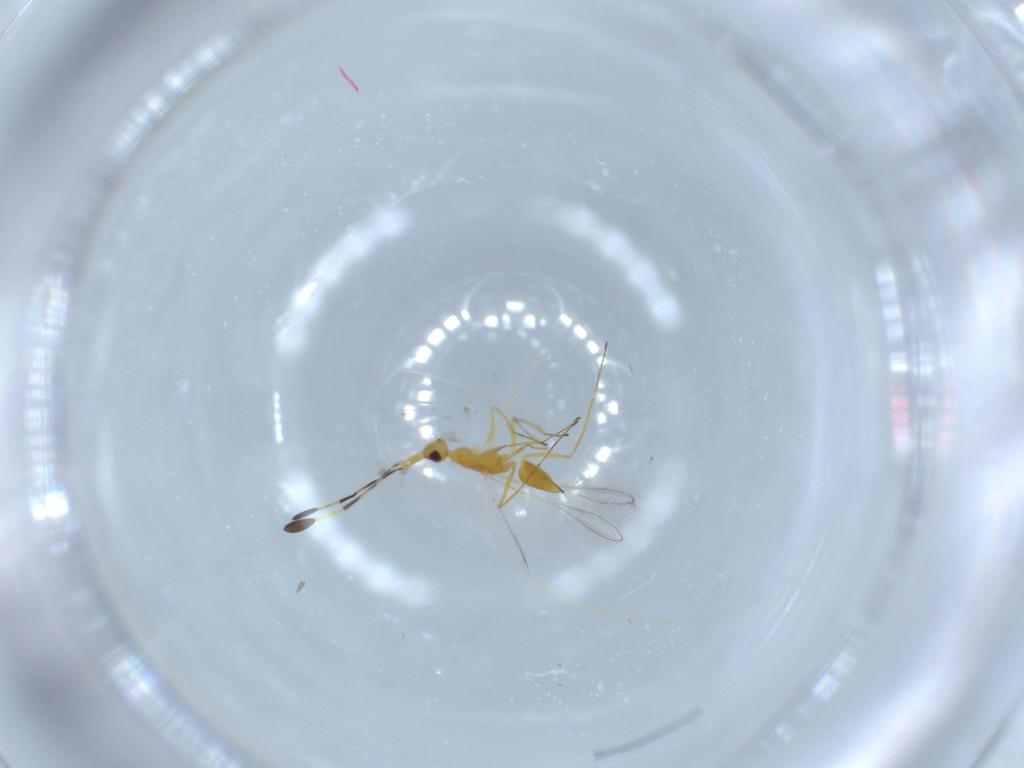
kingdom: Animalia
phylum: Arthropoda
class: Insecta
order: Hymenoptera
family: Mymaridae
